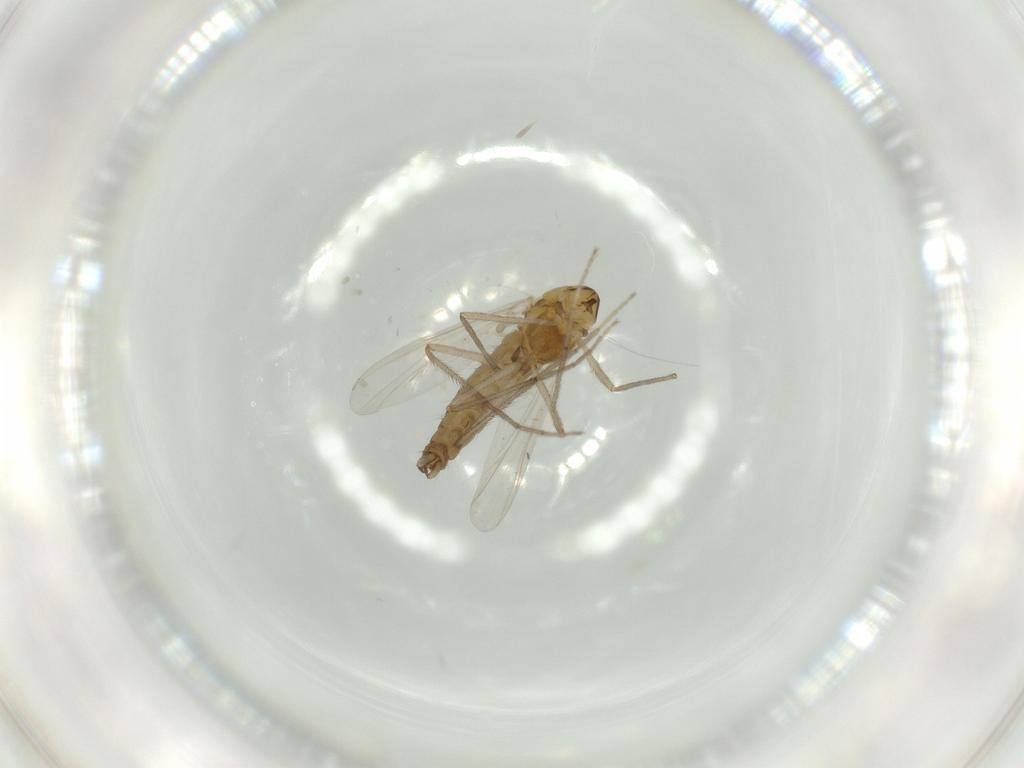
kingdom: Animalia
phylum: Arthropoda
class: Insecta
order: Diptera
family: Chironomidae
